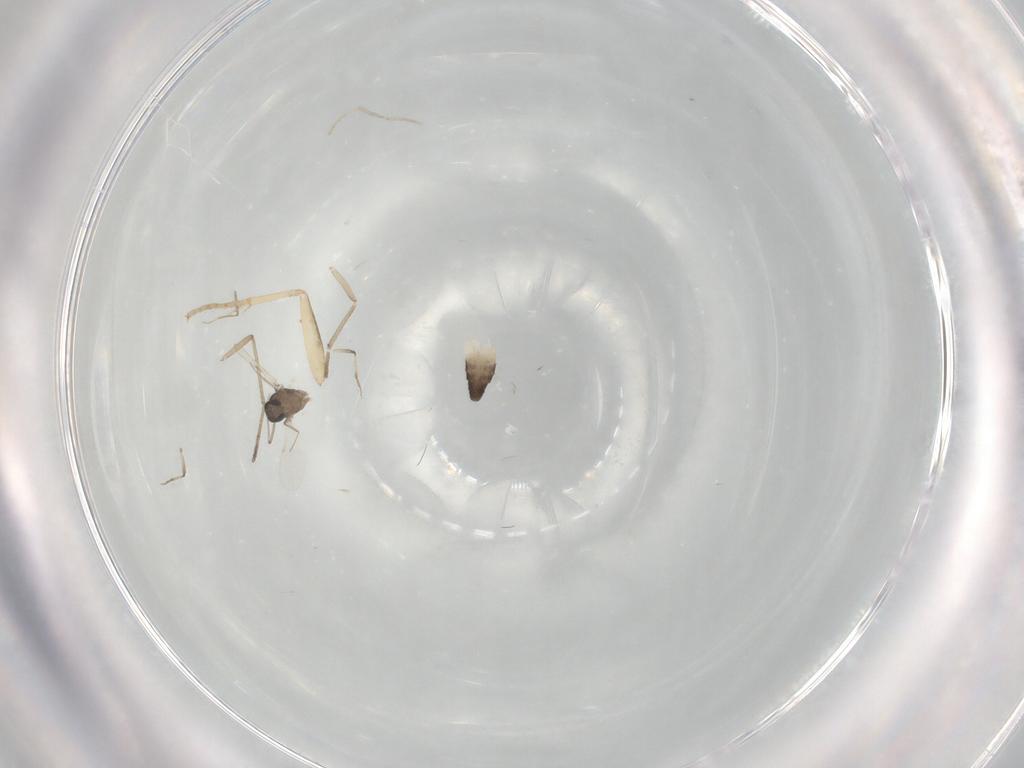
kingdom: Animalia
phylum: Arthropoda
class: Insecta
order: Diptera
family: Ceratopogonidae
